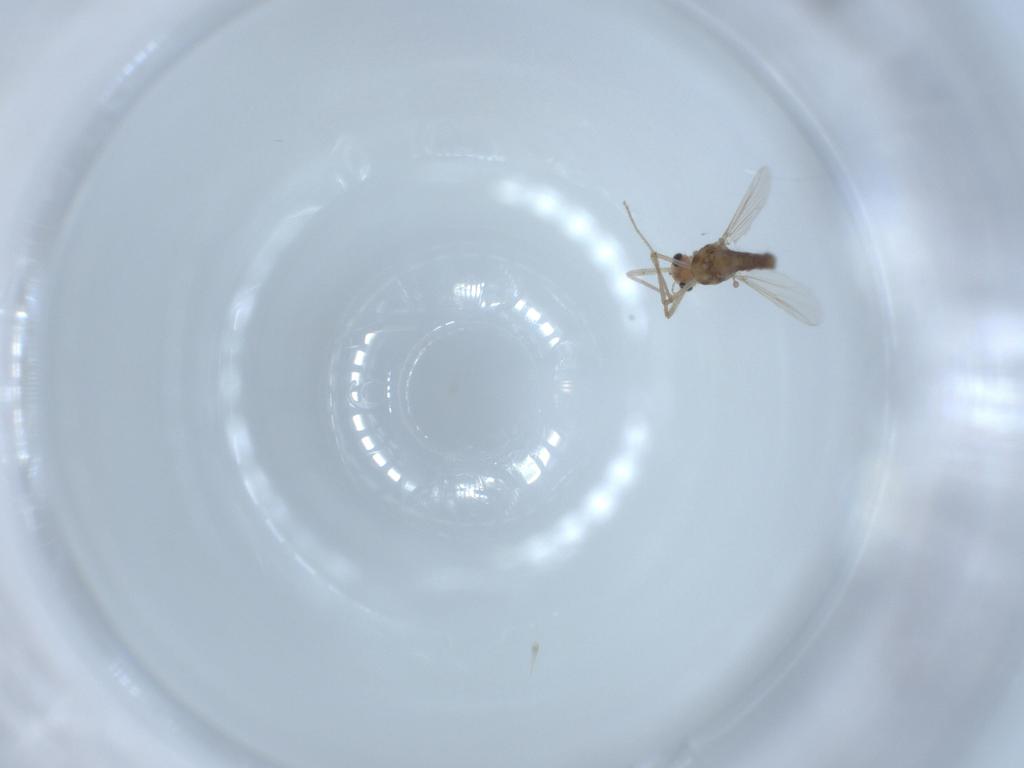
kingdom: Animalia
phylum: Arthropoda
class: Insecta
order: Diptera
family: Chironomidae
